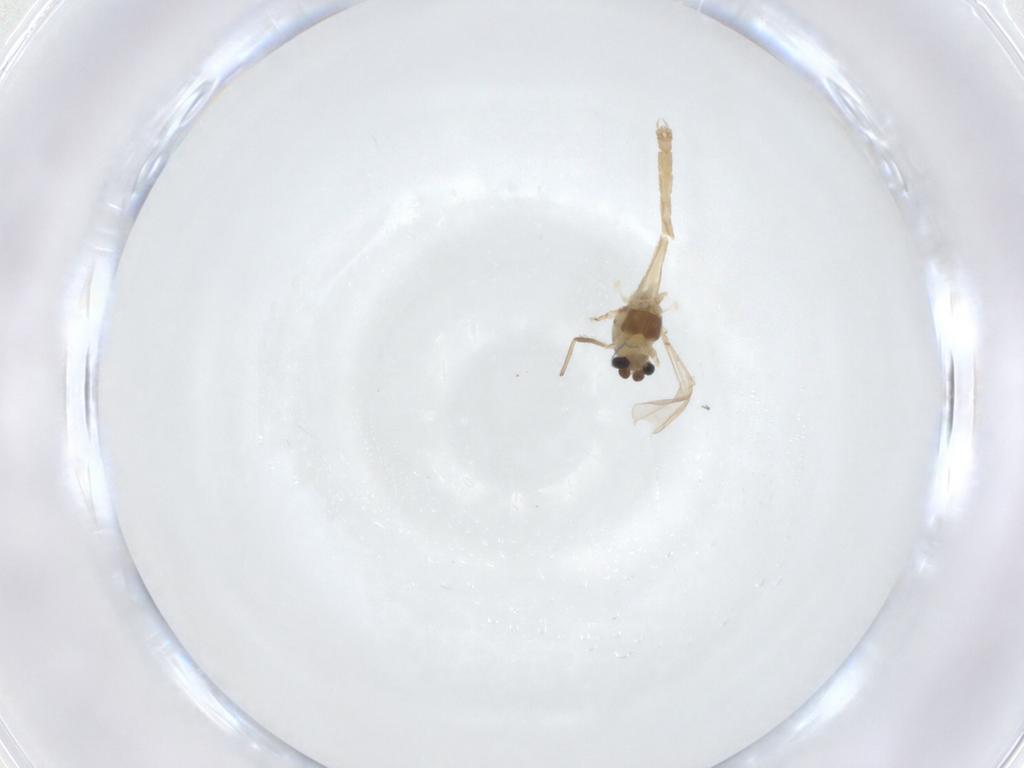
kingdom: Animalia
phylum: Arthropoda
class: Insecta
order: Diptera
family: Chironomidae
